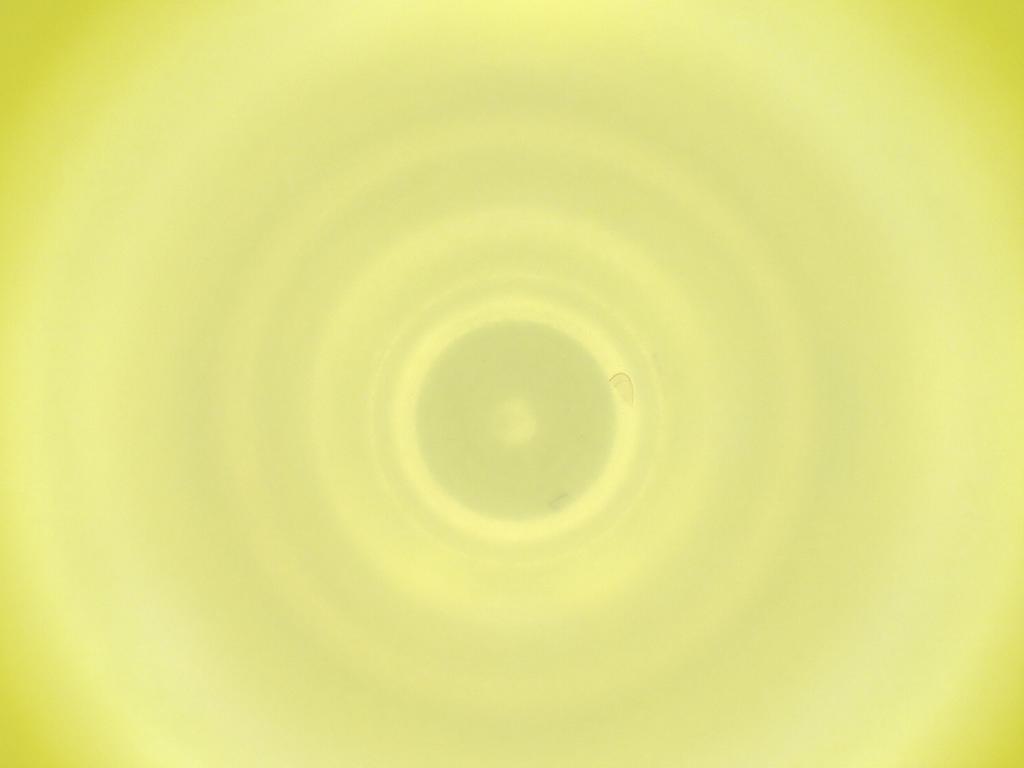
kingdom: Animalia
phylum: Arthropoda
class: Insecta
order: Diptera
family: Cecidomyiidae
